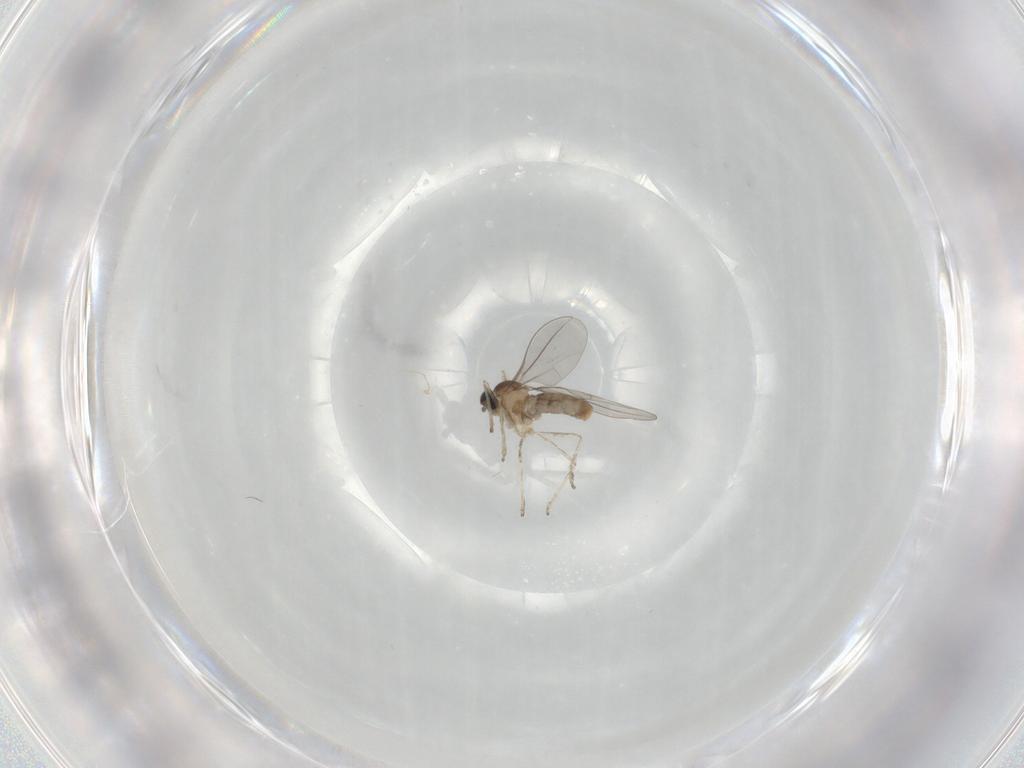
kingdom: Animalia
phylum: Arthropoda
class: Insecta
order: Diptera
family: Cecidomyiidae
